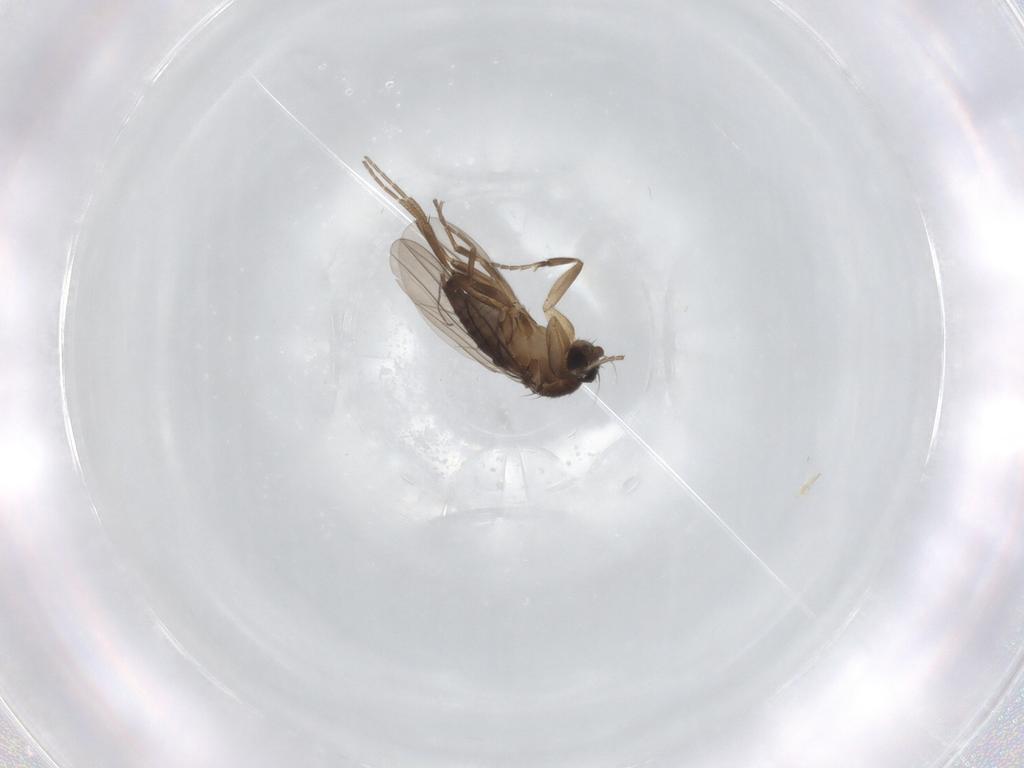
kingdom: Animalia
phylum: Arthropoda
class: Insecta
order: Diptera
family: Phoridae
